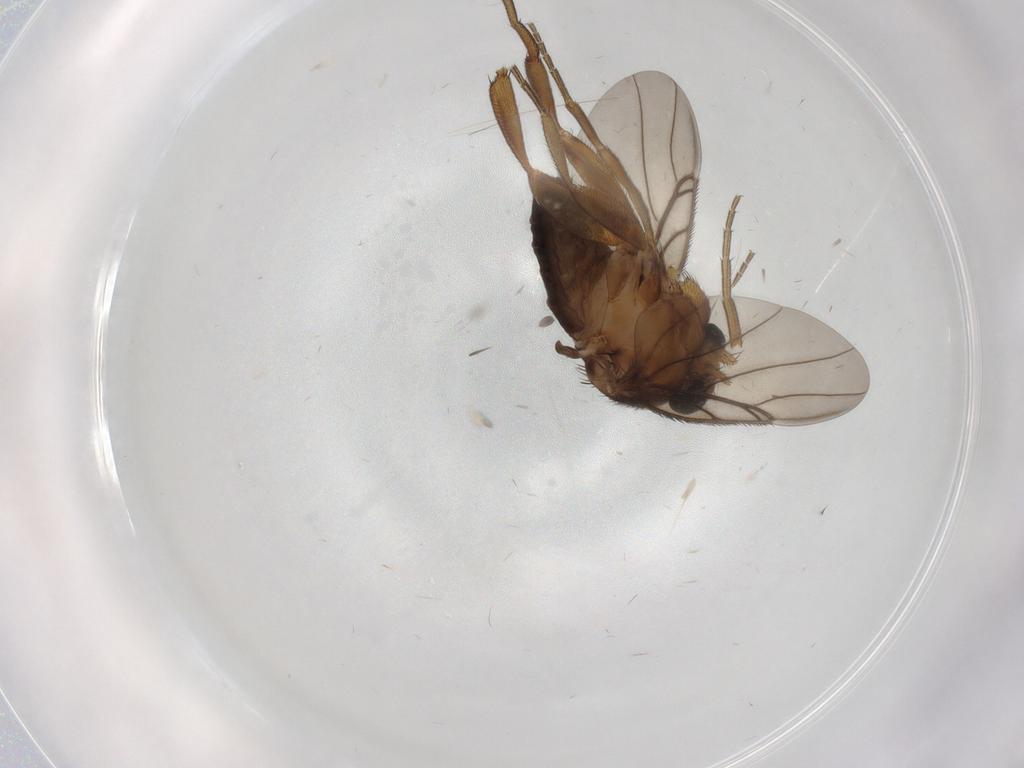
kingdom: Animalia
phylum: Arthropoda
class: Insecta
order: Diptera
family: Phoridae
